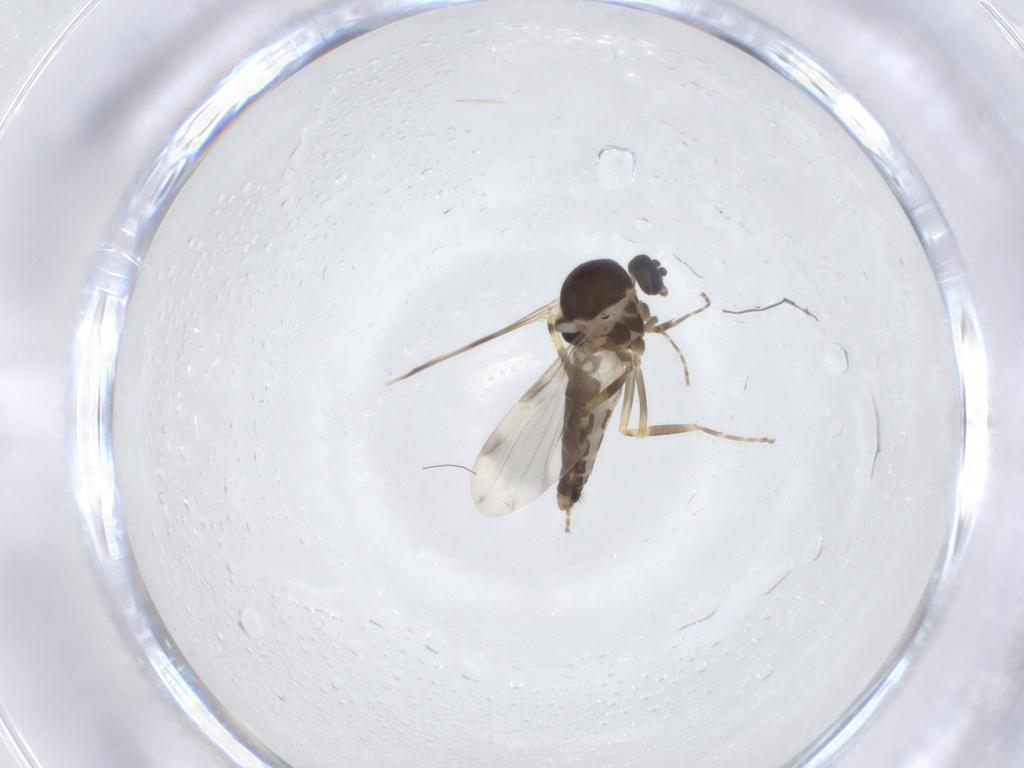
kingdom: Animalia
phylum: Arthropoda
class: Insecta
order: Diptera
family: Ceratopogonidae
